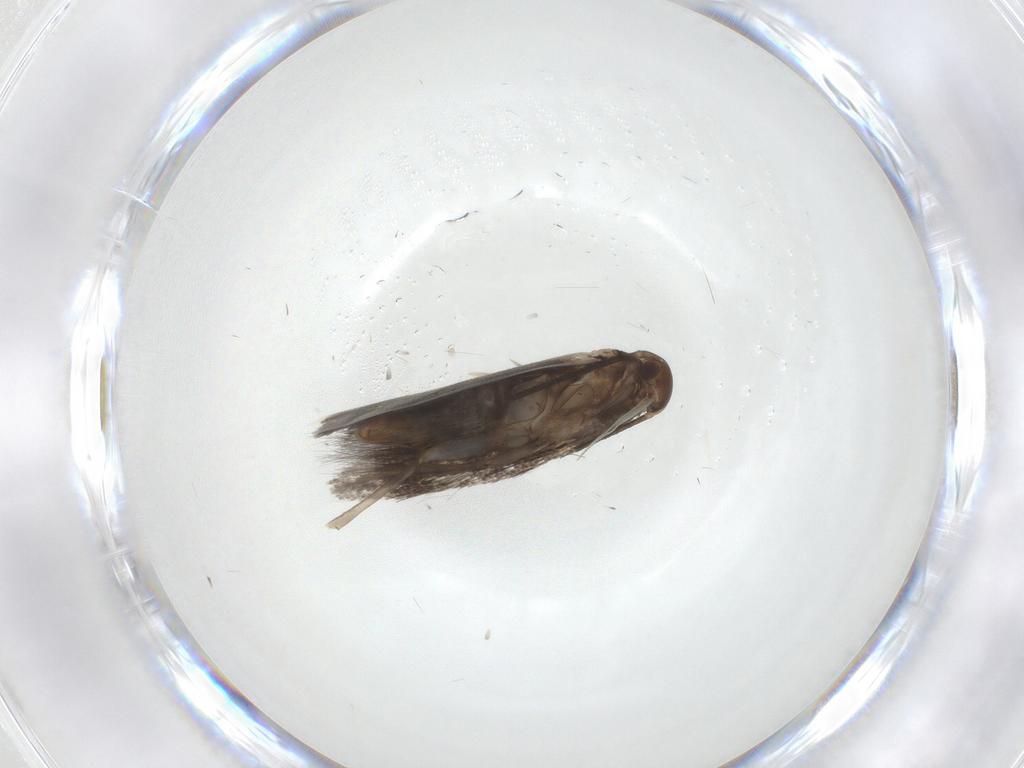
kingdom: Animalia
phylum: Arthropoda
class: Insecta
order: Lepidoptera
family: Elachistidae
